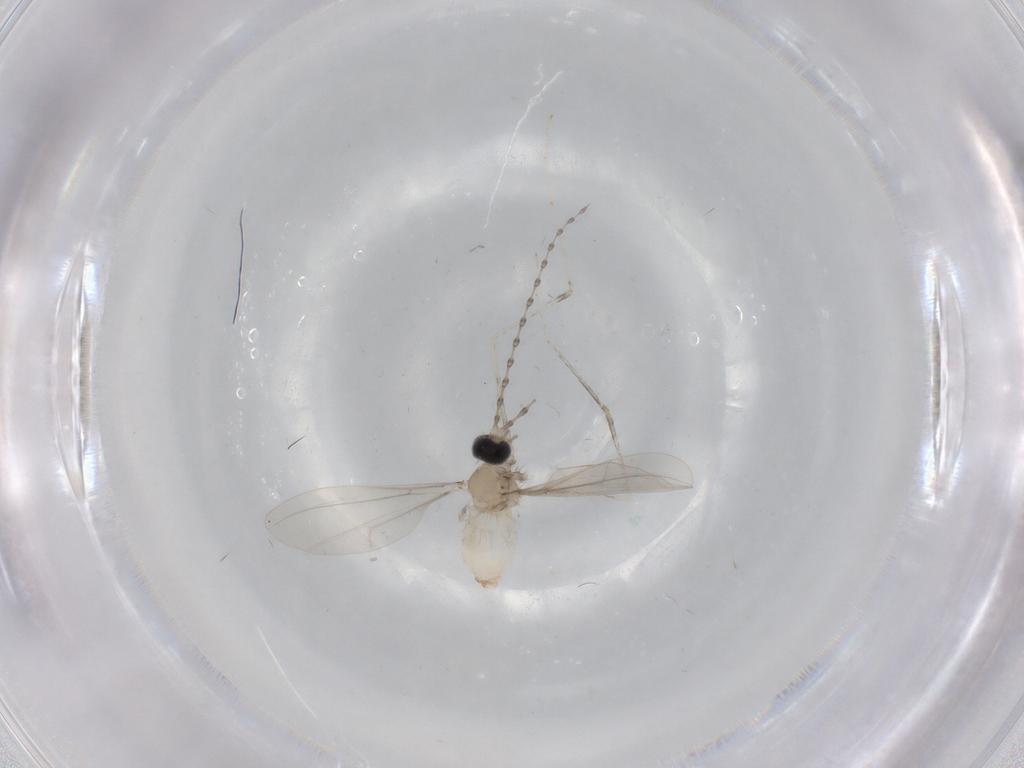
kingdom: Animalia
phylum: Arthropoda
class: Insecta
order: Diptera
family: Cecidomyiidae
